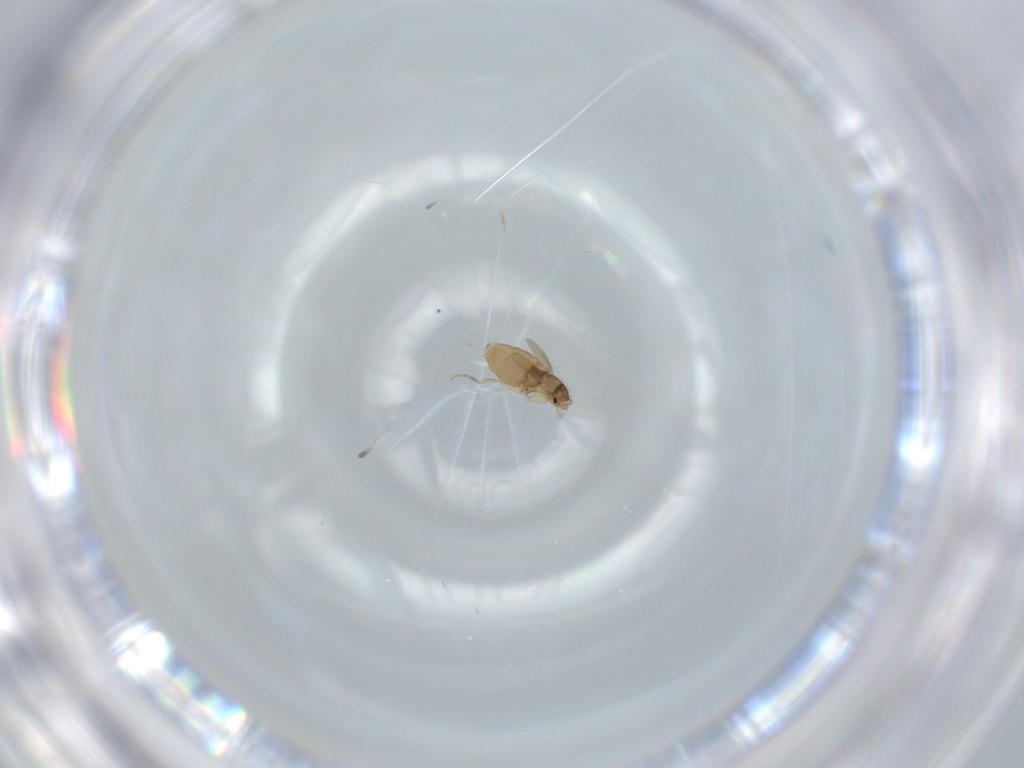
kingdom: Animalia
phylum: Arthropoda
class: Insecta
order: Diptera
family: Phoridae
